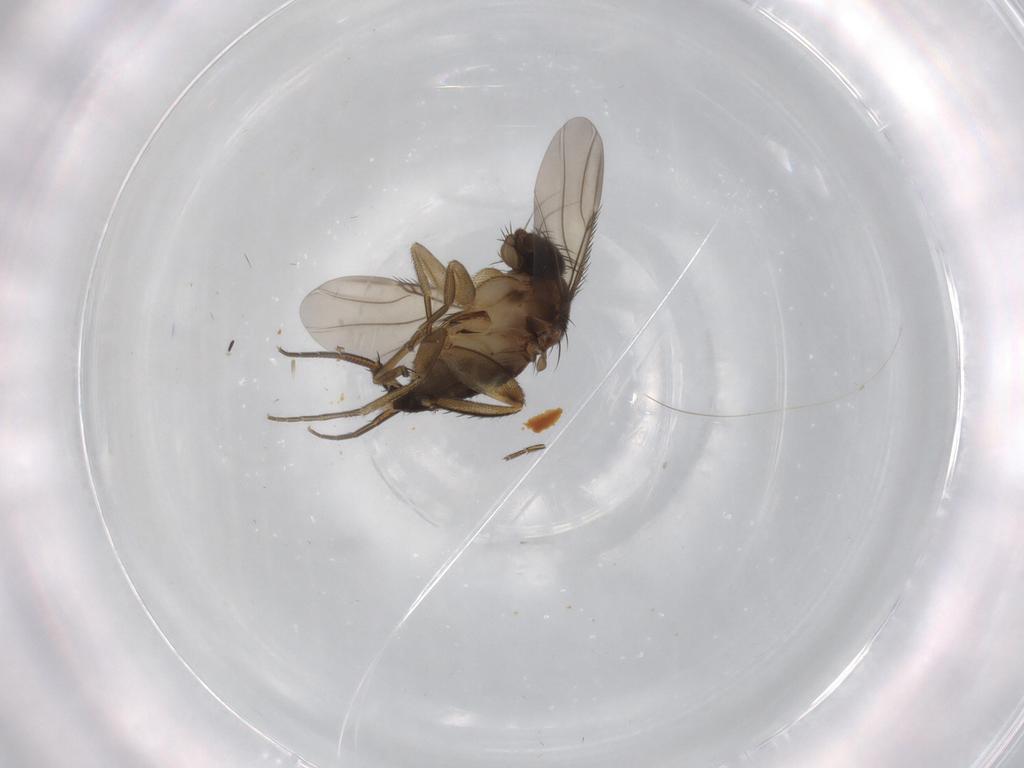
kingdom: Animalia
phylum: Arthropoda
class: Insecta
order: Diptera
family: Phoridae
